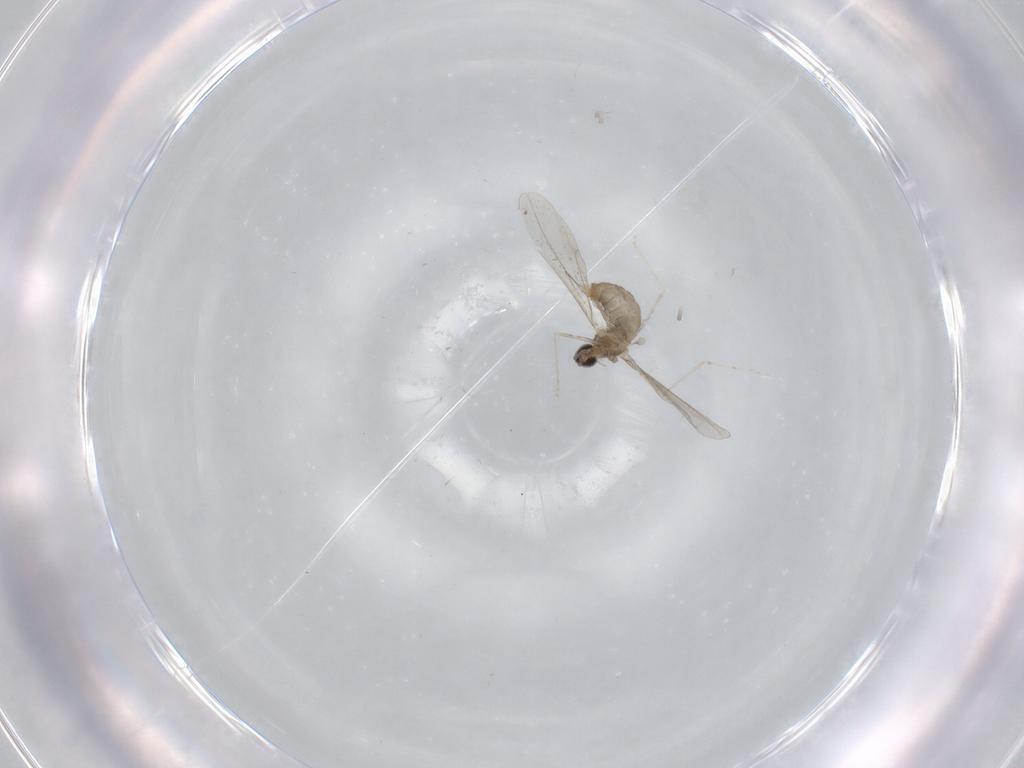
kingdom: Animalia
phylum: Arthropoda
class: Insecta
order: Diptera
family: Cecidomyiidae
